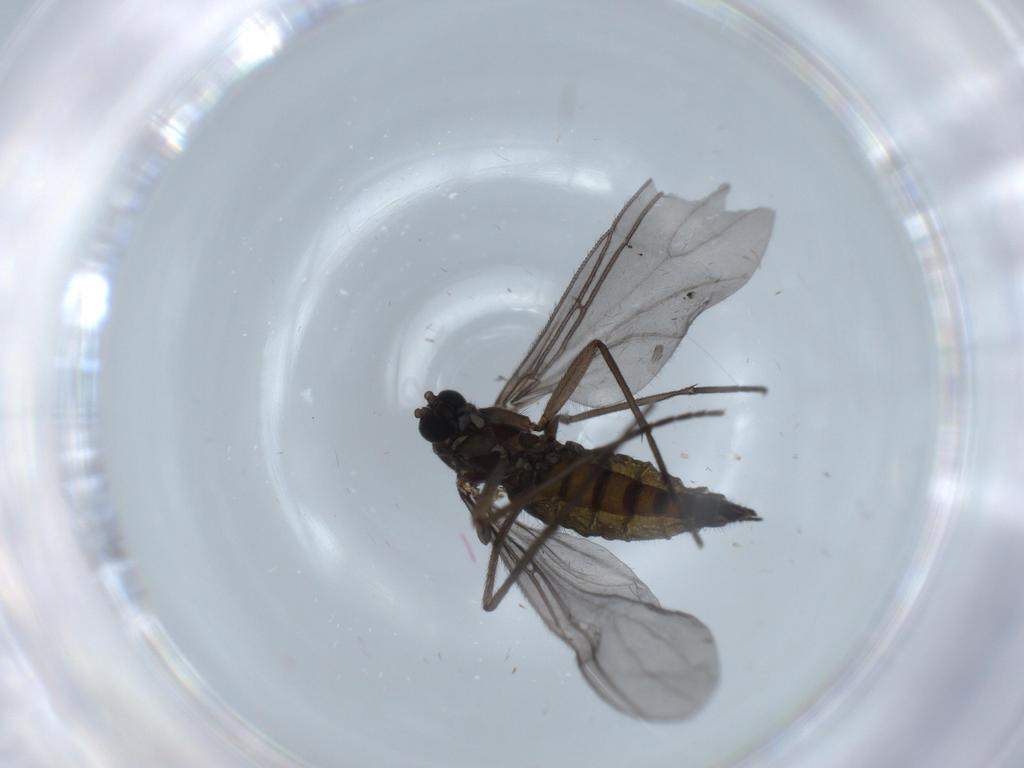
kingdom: Animalia
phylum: Arthropoda
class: Insecta
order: Diptera
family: Sciaridae
